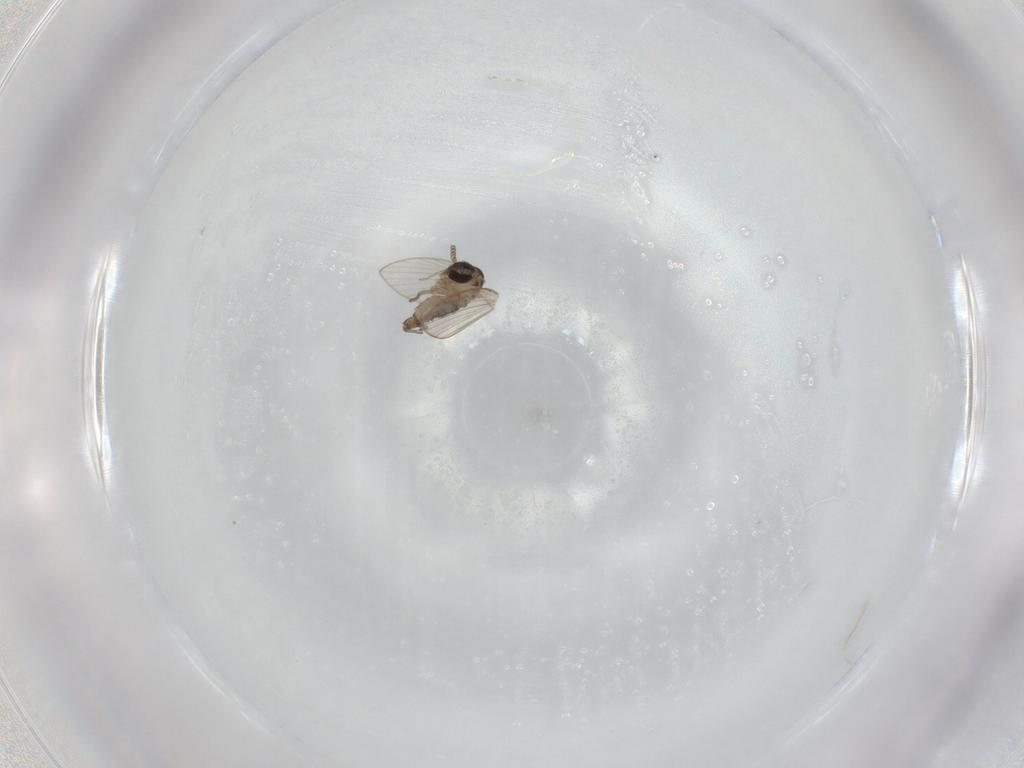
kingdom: Animalia
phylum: Arthropoda
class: Insecta
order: Diptera
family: Psychodidae
